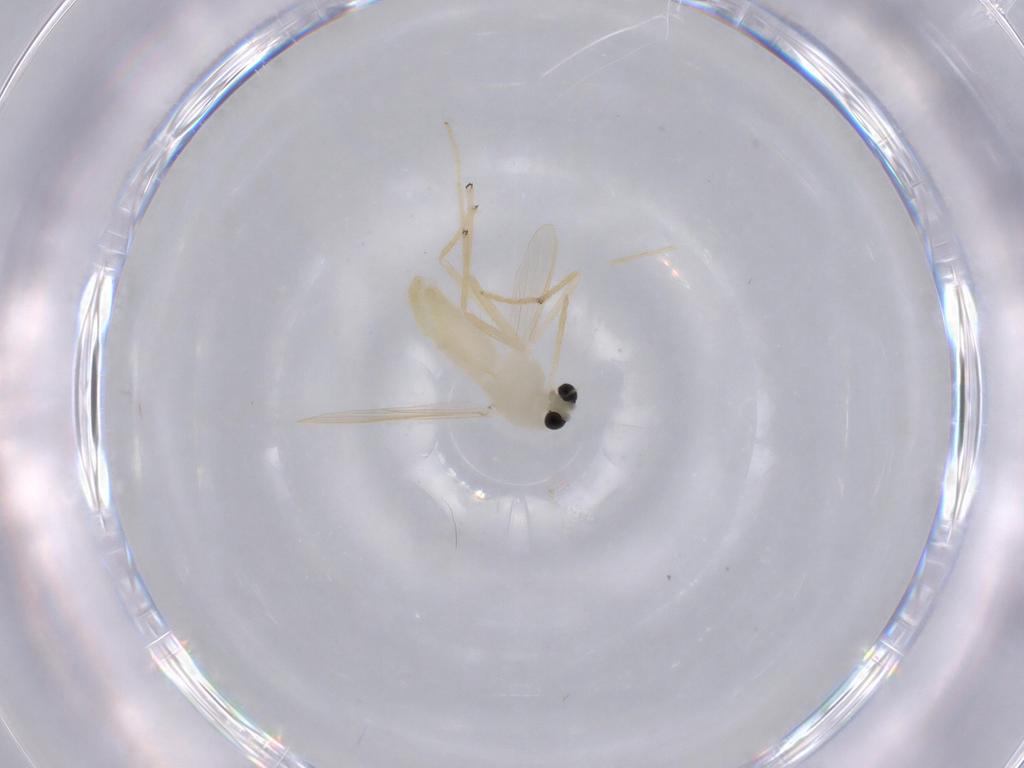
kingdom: Animalia
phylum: Arthropoda
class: Insecta
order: Diptera
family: Chironomidae
